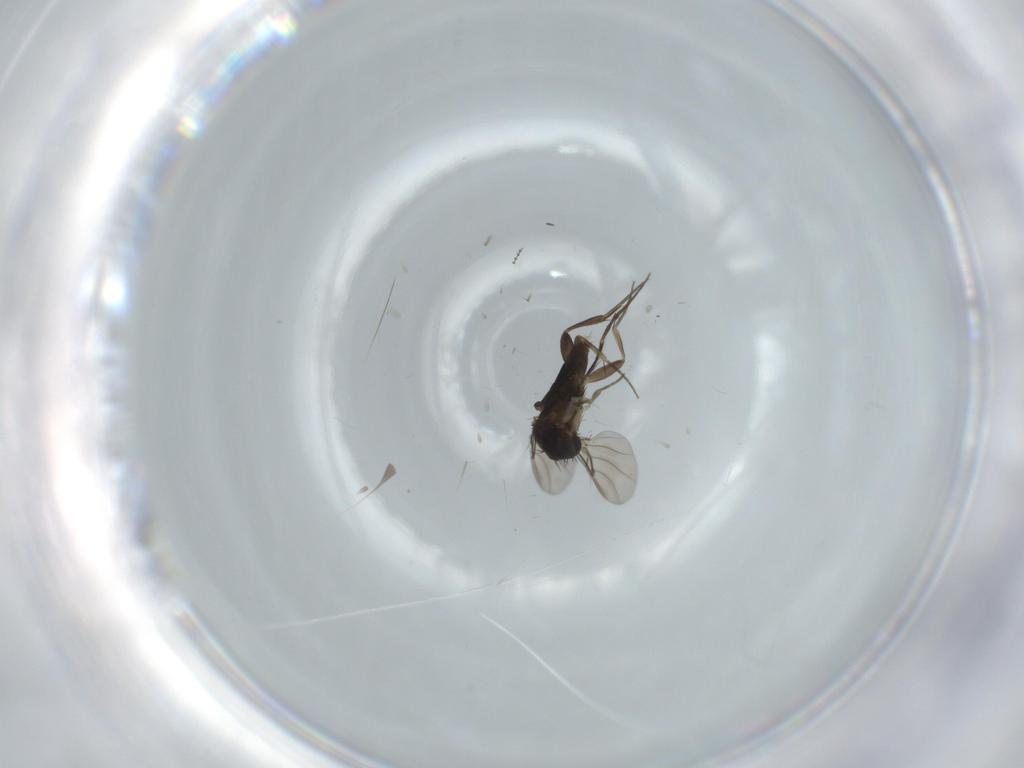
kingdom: Animalia
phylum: Arthropoda
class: Insecta
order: Diptera
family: Cecidomyiidae
